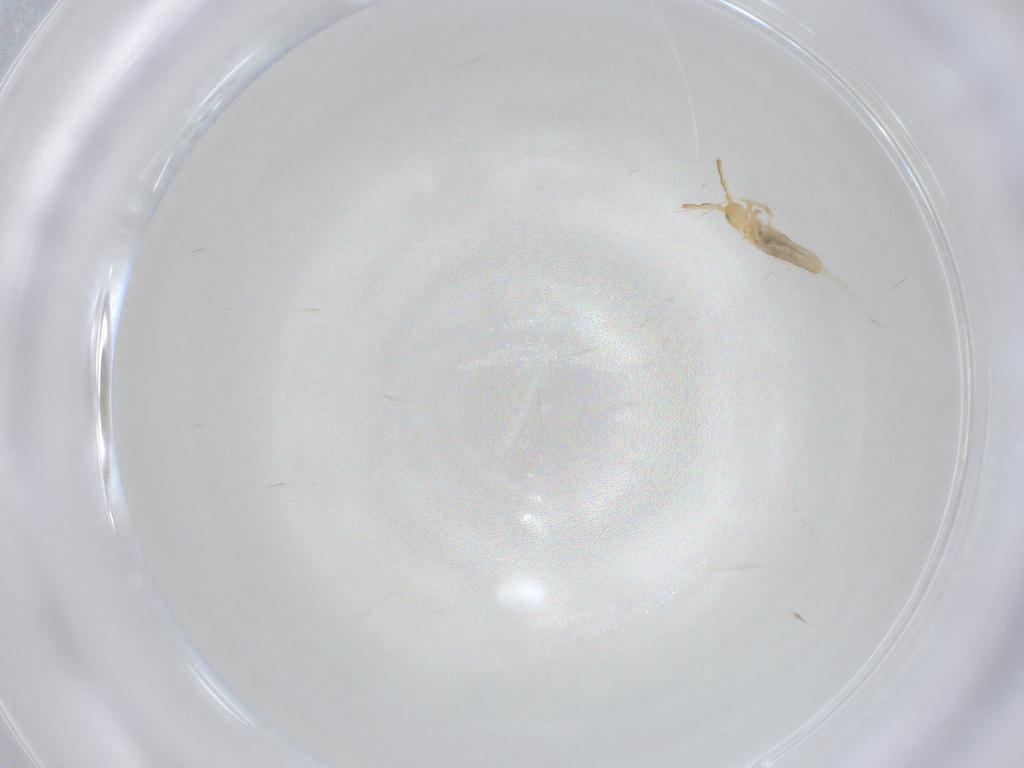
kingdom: Animalia
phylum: Arthropoda
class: Collembola
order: Entomobryomorpha
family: Entomobryidae
